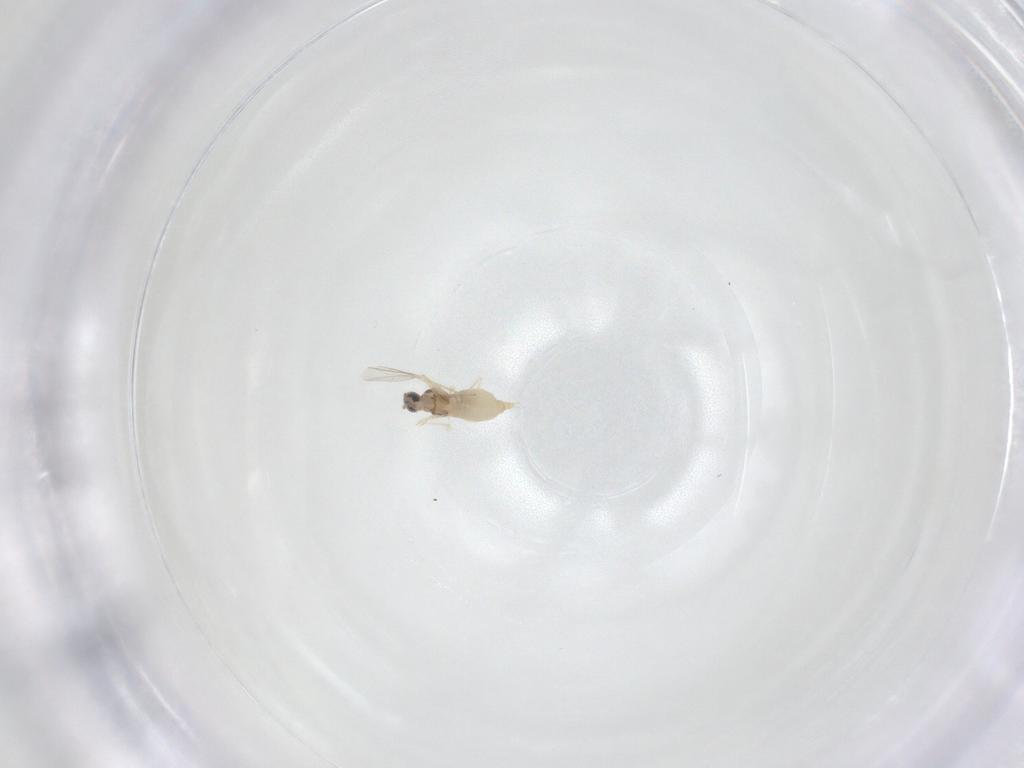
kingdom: Animalia
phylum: Arthropoda
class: Insecta
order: Diptera
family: Cecidomyiidae
